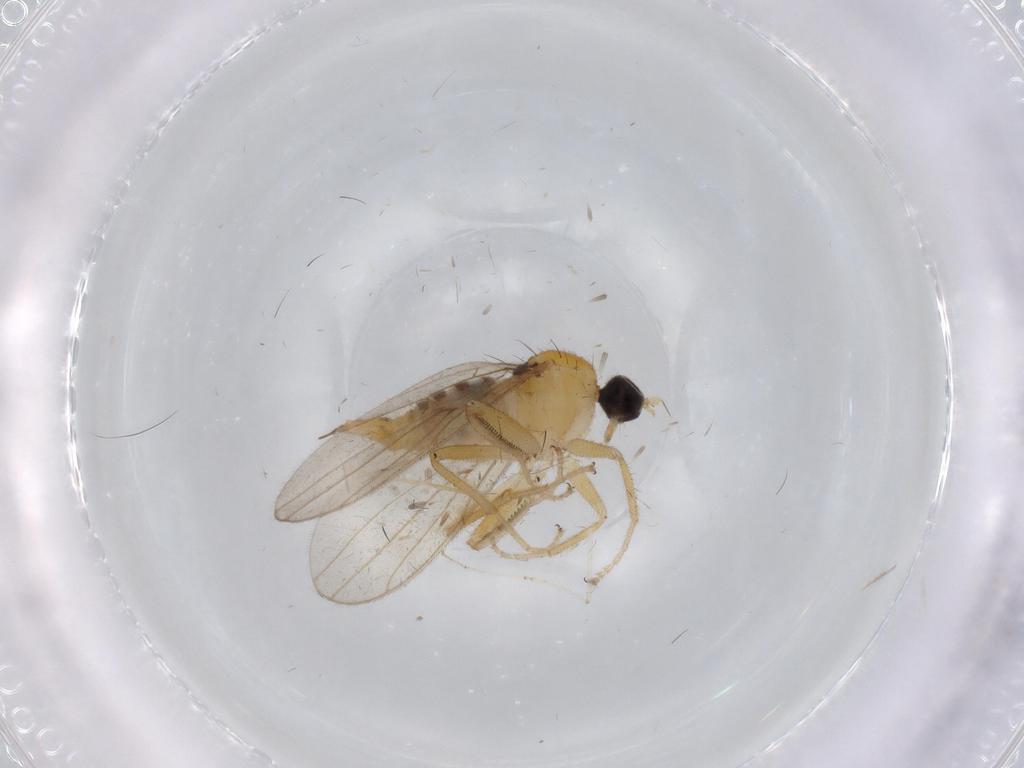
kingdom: Animalia
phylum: Arthropoda
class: Insecta
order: Diptera
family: Hybotidae
